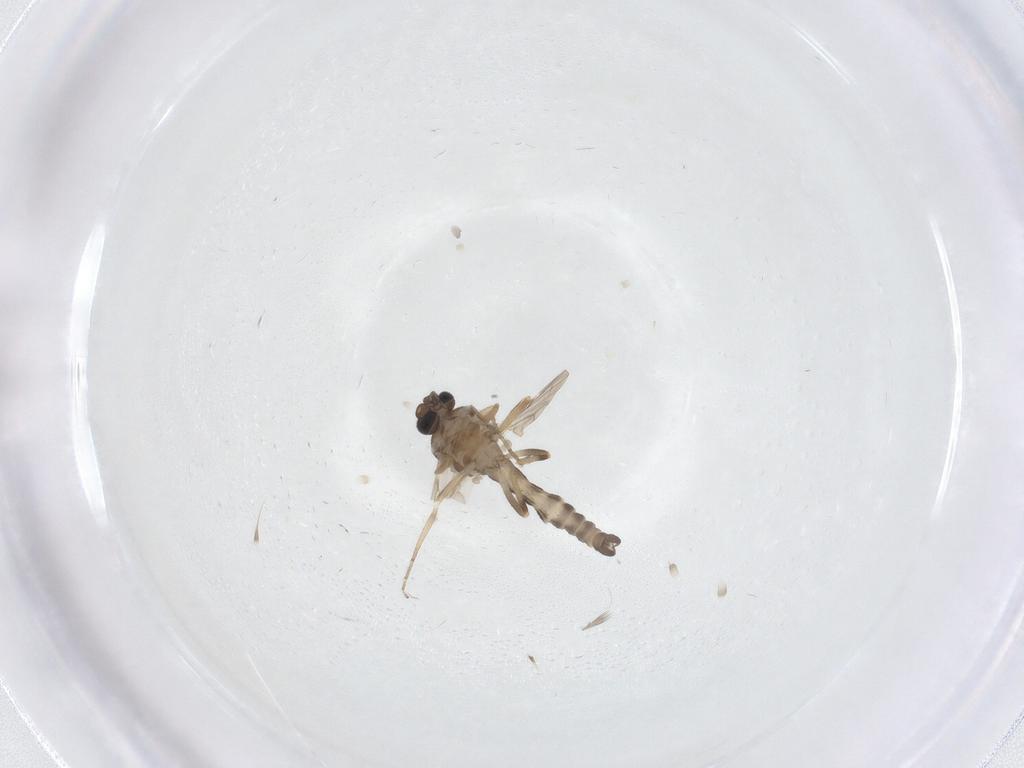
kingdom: Animalia
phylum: Arthropoda
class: Insecta
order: Diptera
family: Ceratopogonidae
